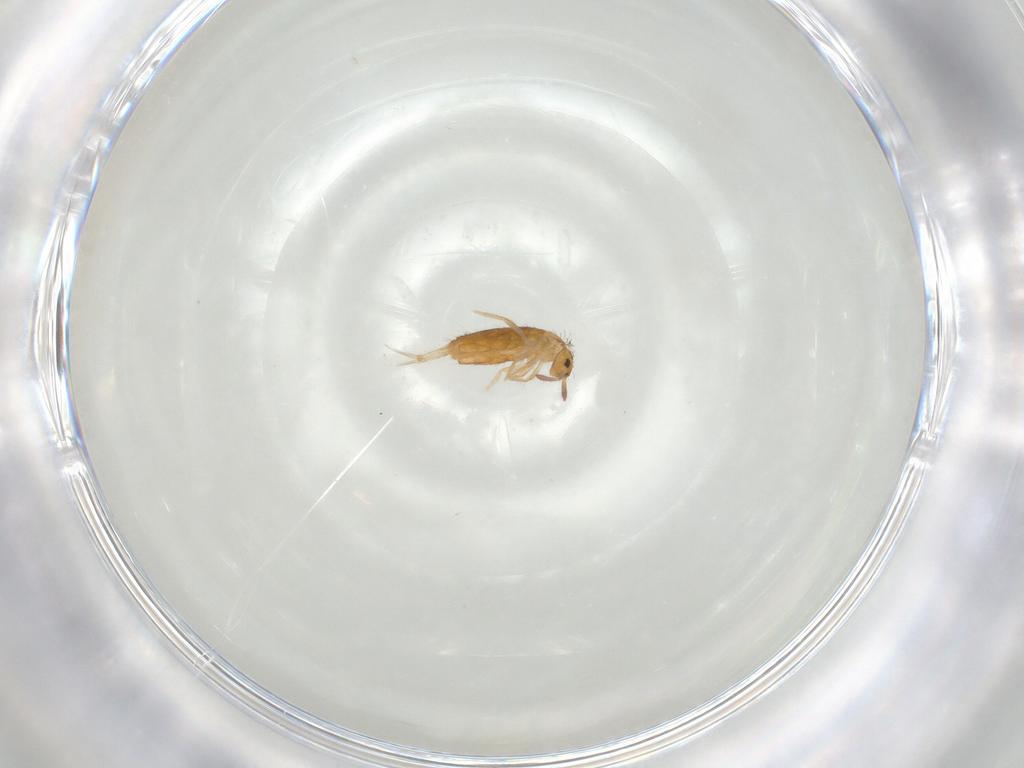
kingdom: Animalia
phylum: Arthropoda
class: Collembola
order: Entomobryomorpha
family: Entomobryidae
